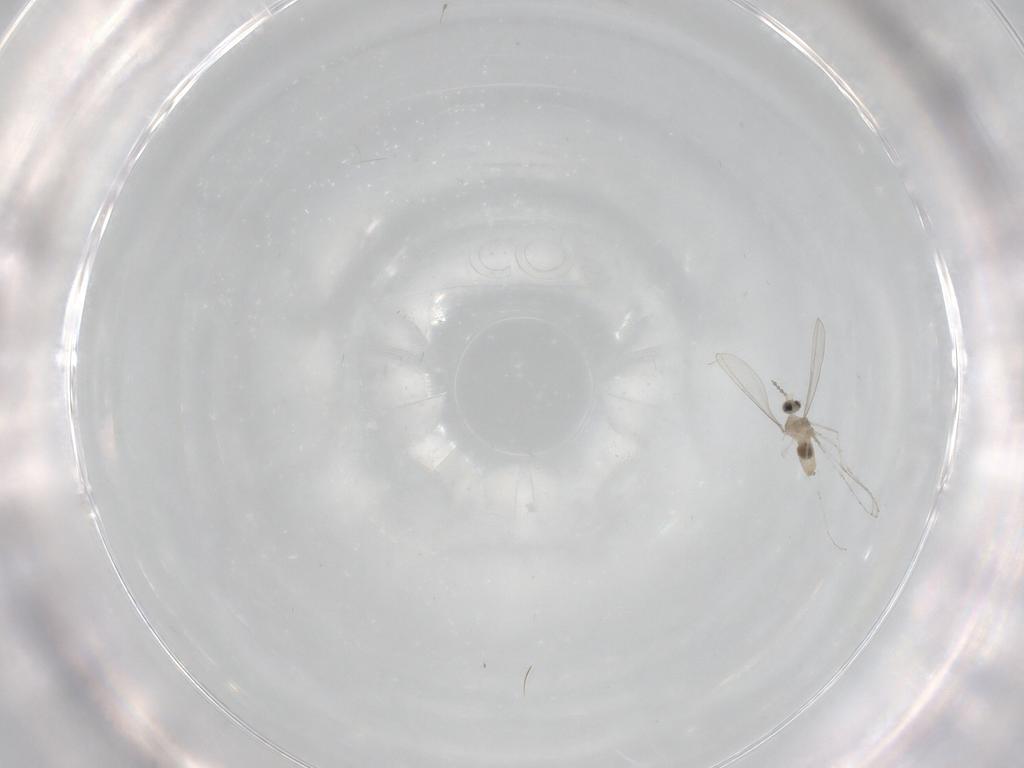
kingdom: Animalia
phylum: Arthropoda
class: Insecta
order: Diptera
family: Cecidomyiidae
